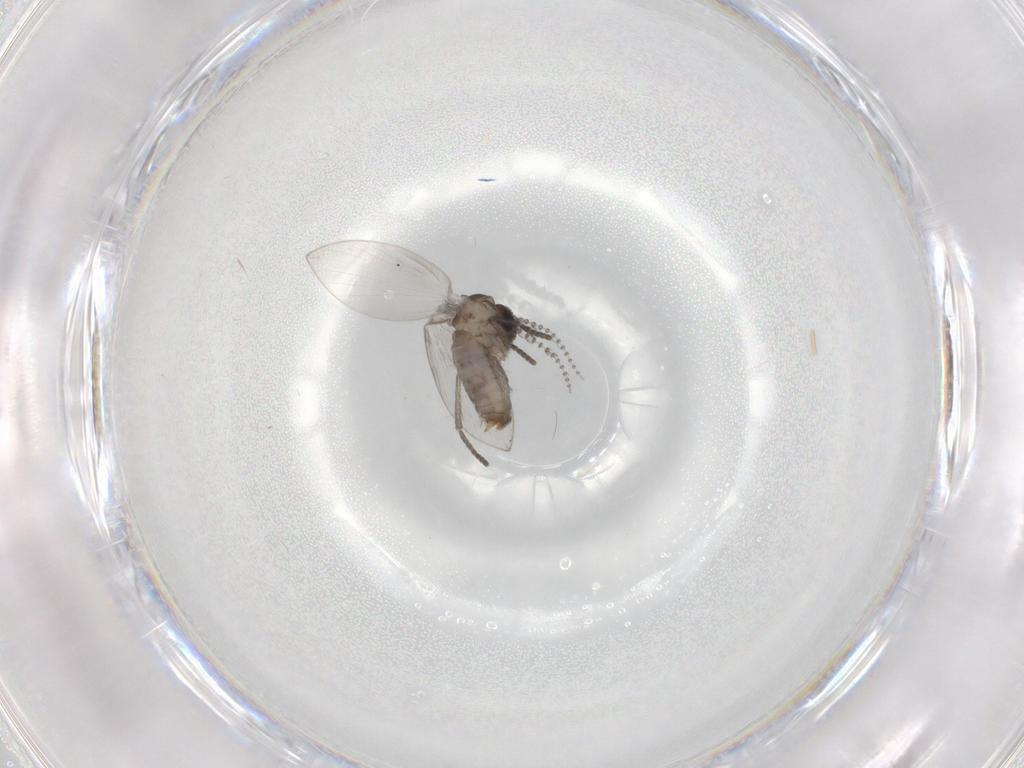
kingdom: Animalia
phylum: Arthropoda
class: Insecta
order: Diptera
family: Psychodidae
